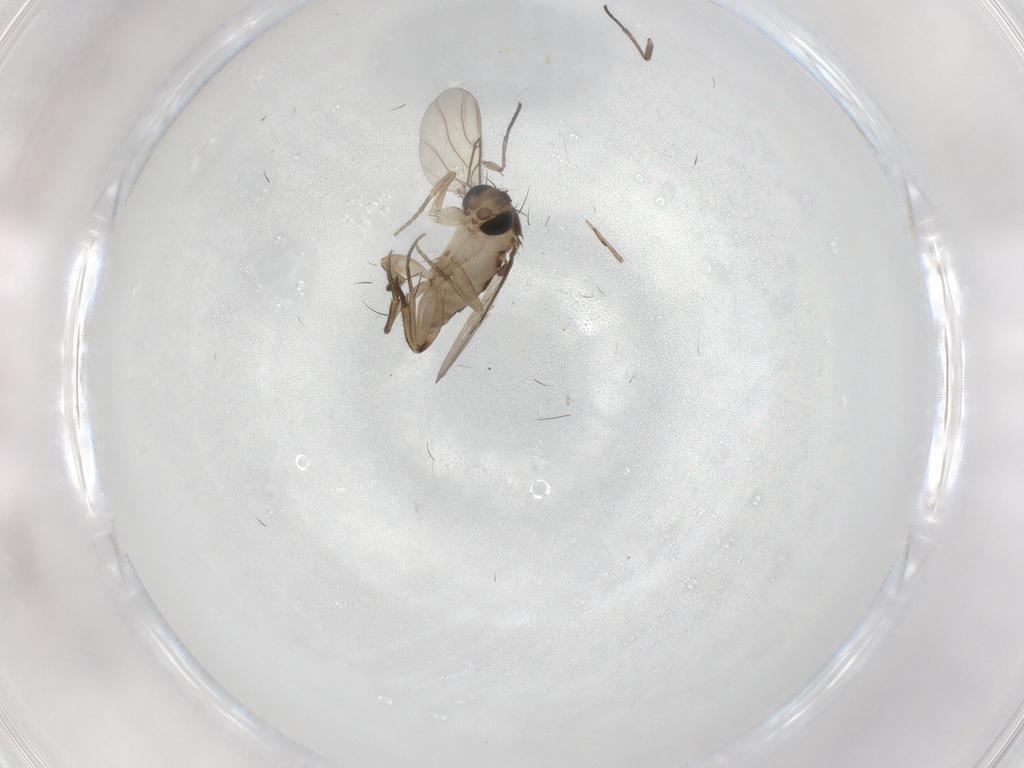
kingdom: Animalia
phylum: Arthropoda
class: Insecta
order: Diptera
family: Phoridae
